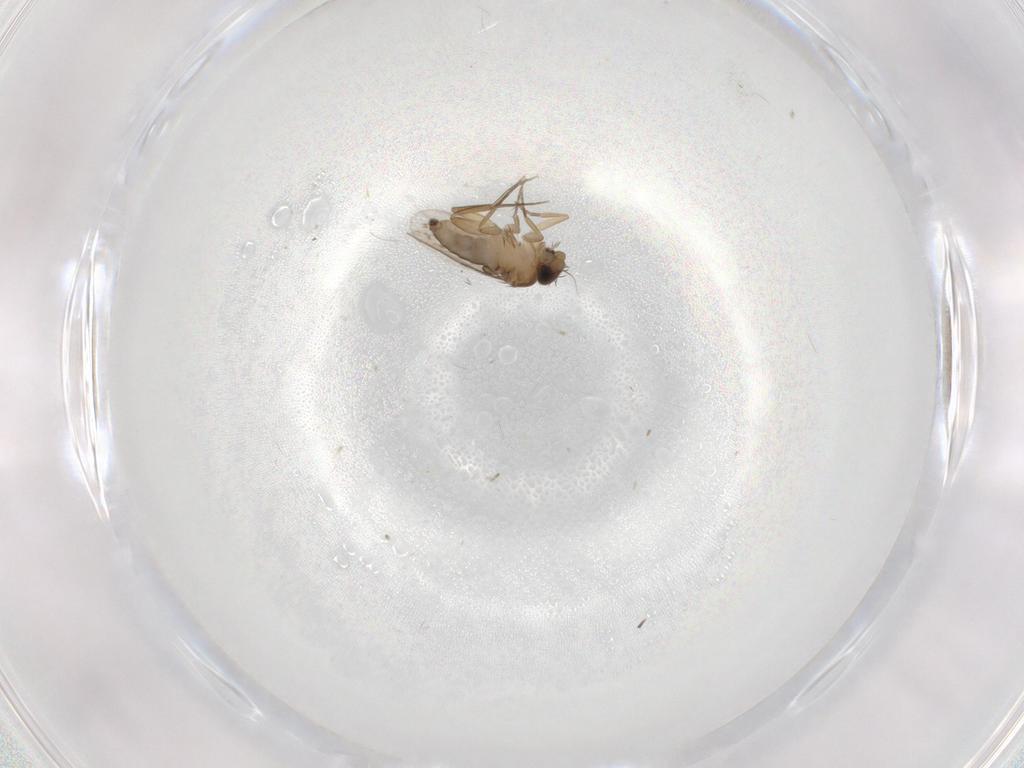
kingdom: Animalia
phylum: Arthropoda
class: Insecta
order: Diptera
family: Phoridae
